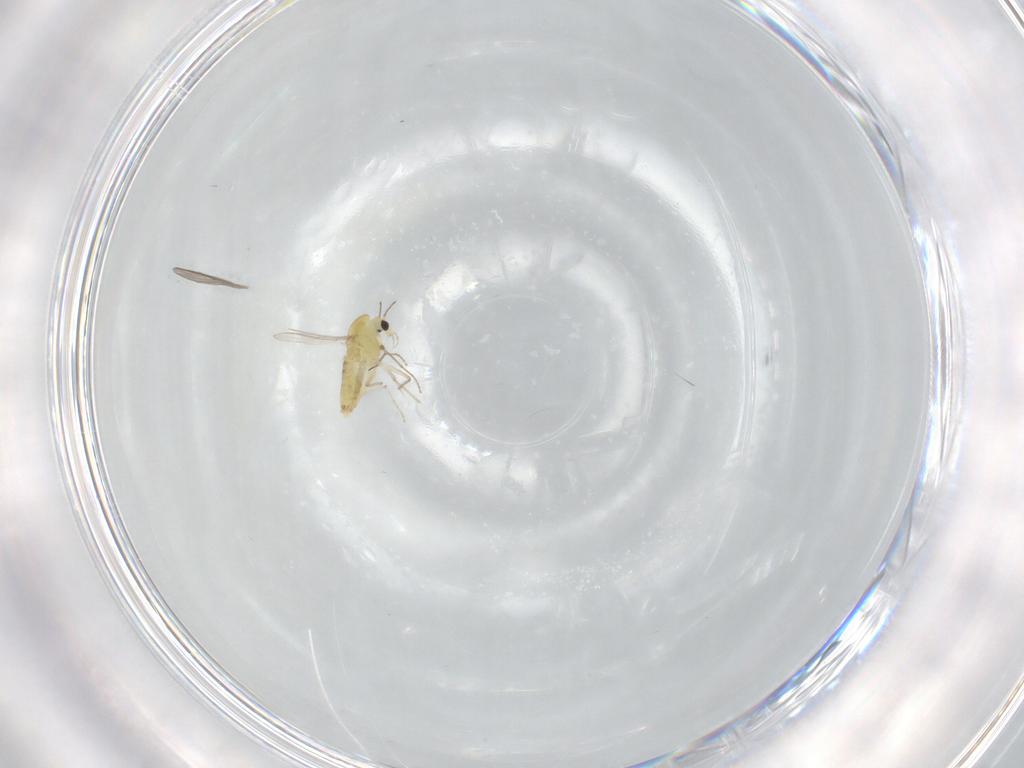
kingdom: Animalia
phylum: Arthropoda
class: Insecta
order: Diptera
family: Chironomidae
